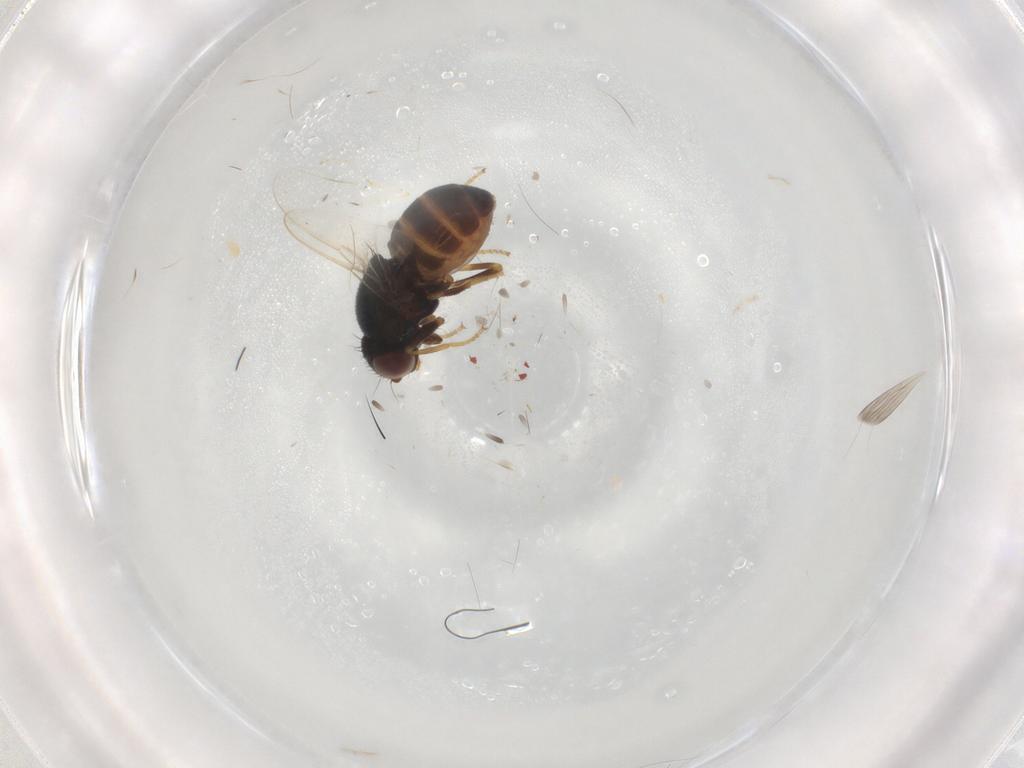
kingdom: Animalia
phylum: Arthropoda
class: Insecta
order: Diptera
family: Chloropidae
